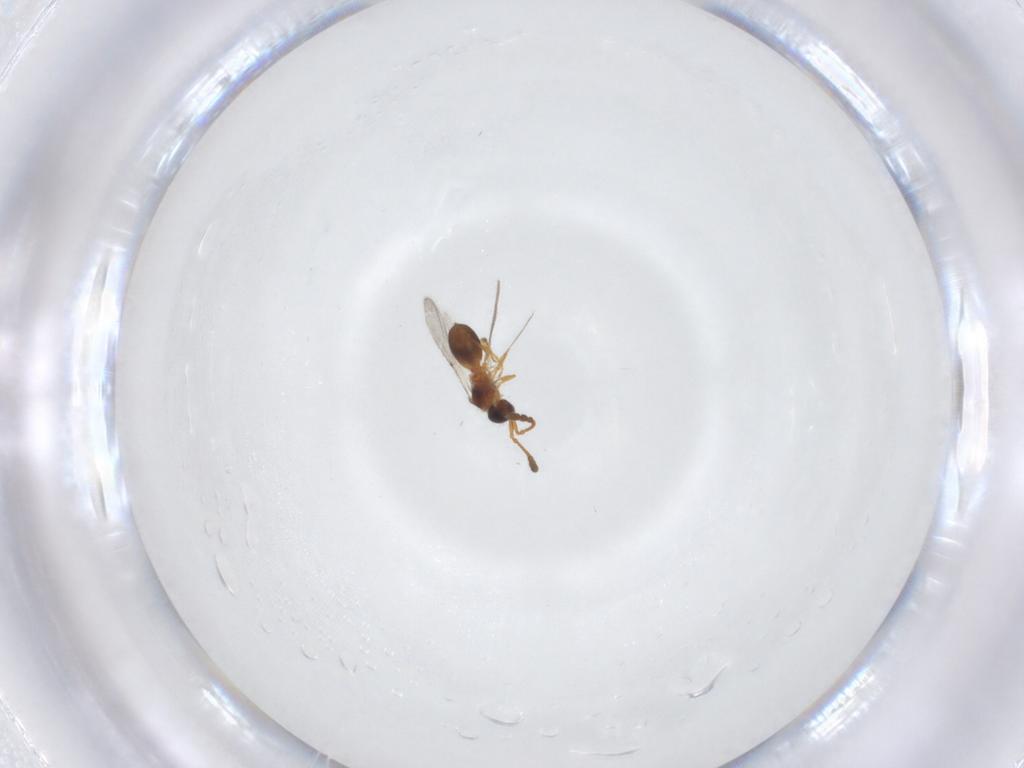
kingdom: Animalia
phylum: Arthropoda
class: Insecta
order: Hymenoptera
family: Diapriidae
